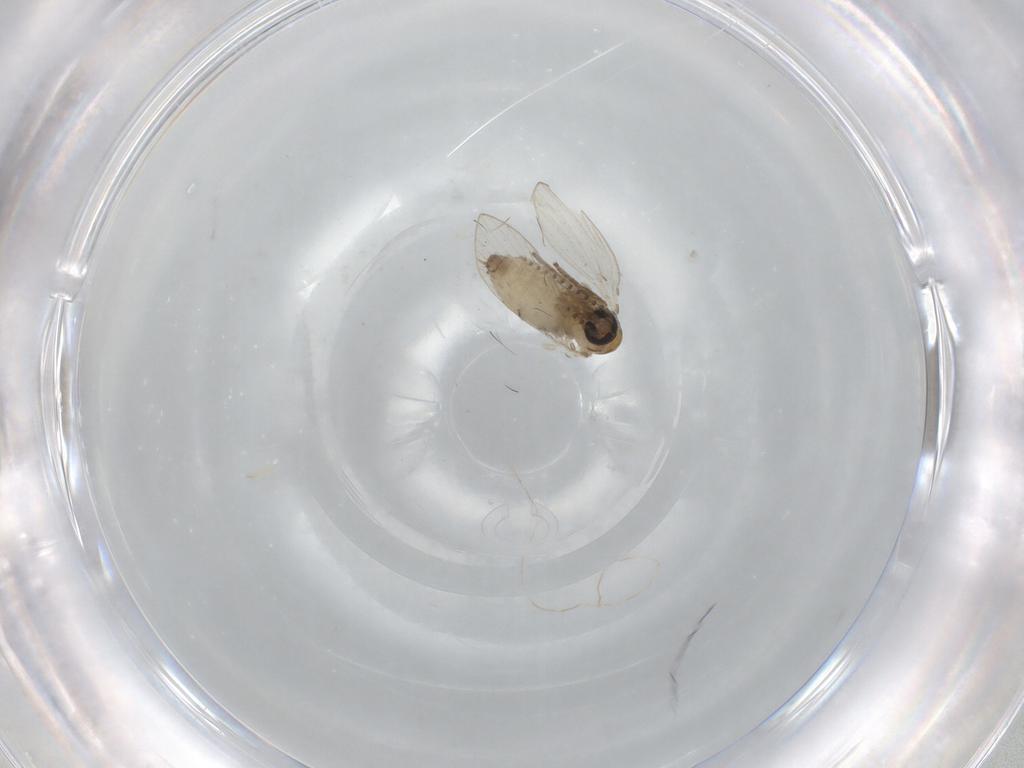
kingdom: Animalia
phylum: Arthropoda
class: Insecta
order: Diptera
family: Psychodidae
